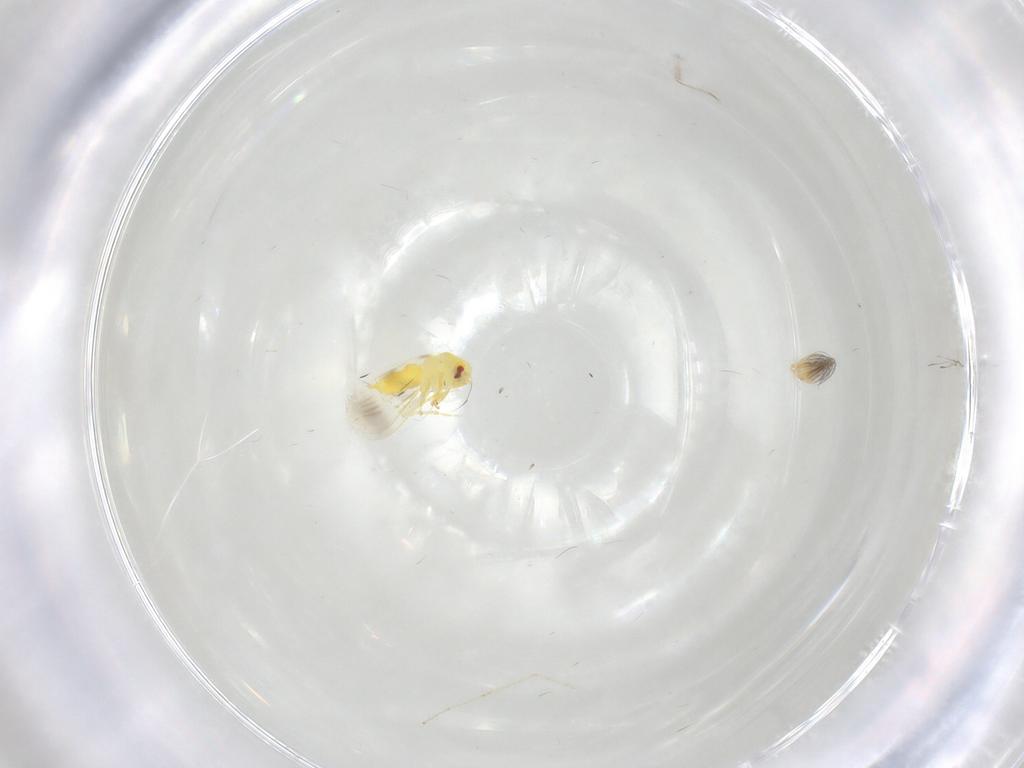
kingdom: Animalia
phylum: Arthropoda
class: Insecta
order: Hemiptera
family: Aleyrodidae
